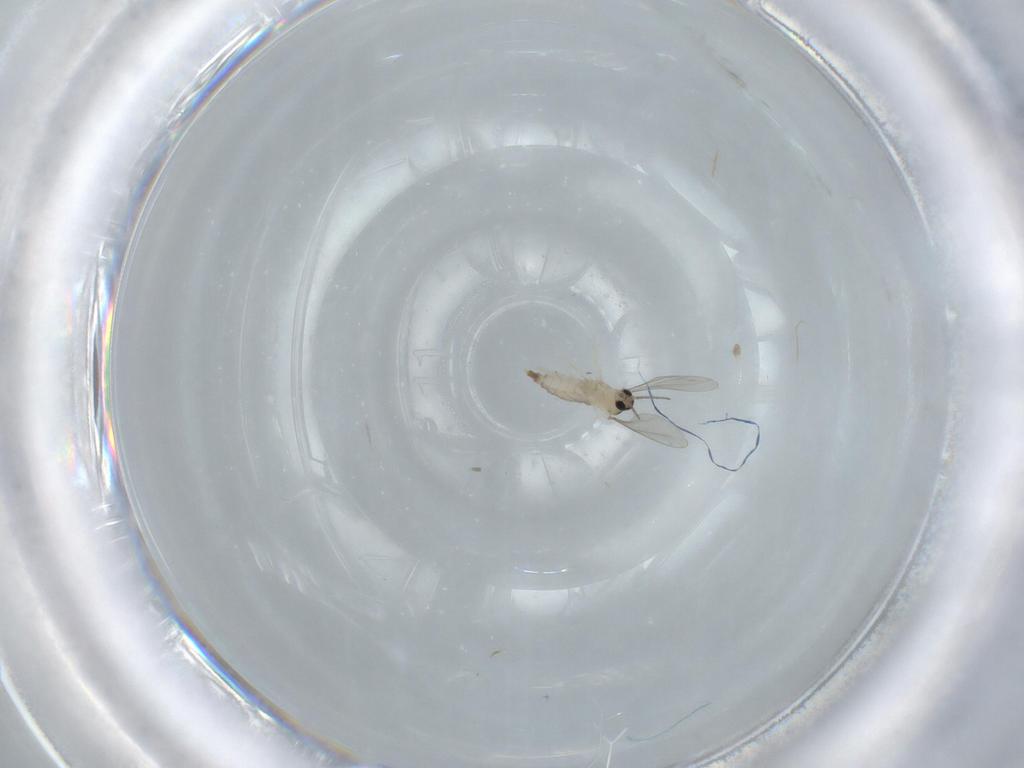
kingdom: Animalia
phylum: Arthropoda
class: Insecta
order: Diptera
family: Hybotidae
